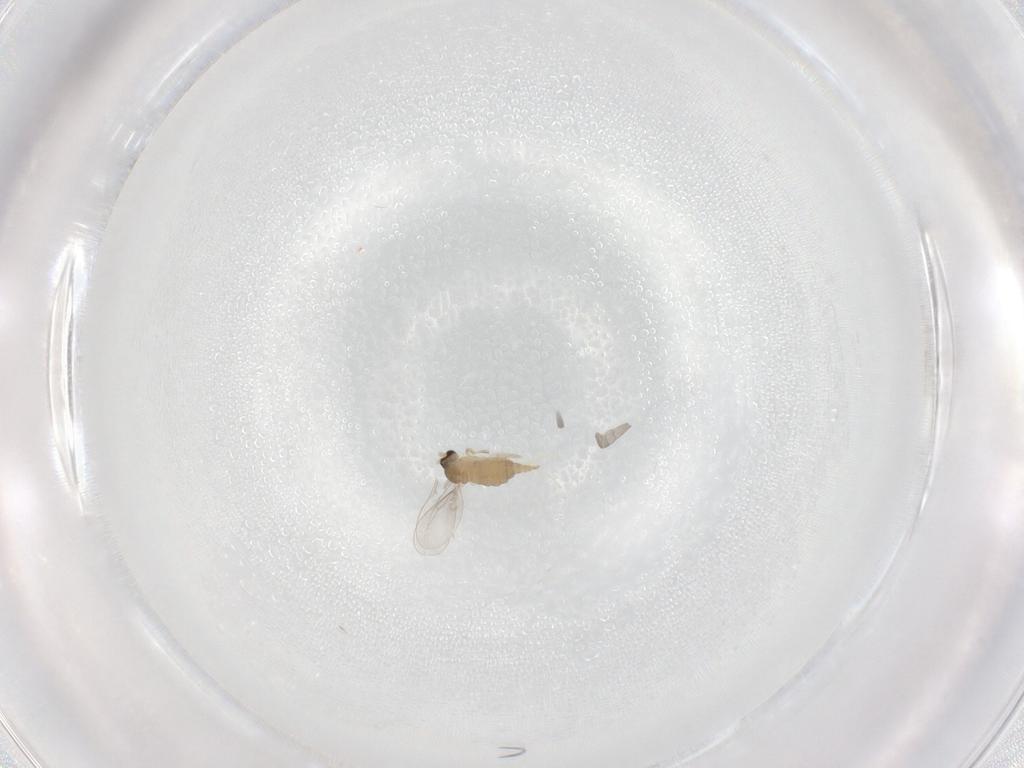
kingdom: Animalia
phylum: Arthropoda
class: Insecta
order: Diptera
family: Cecidomyiidae
